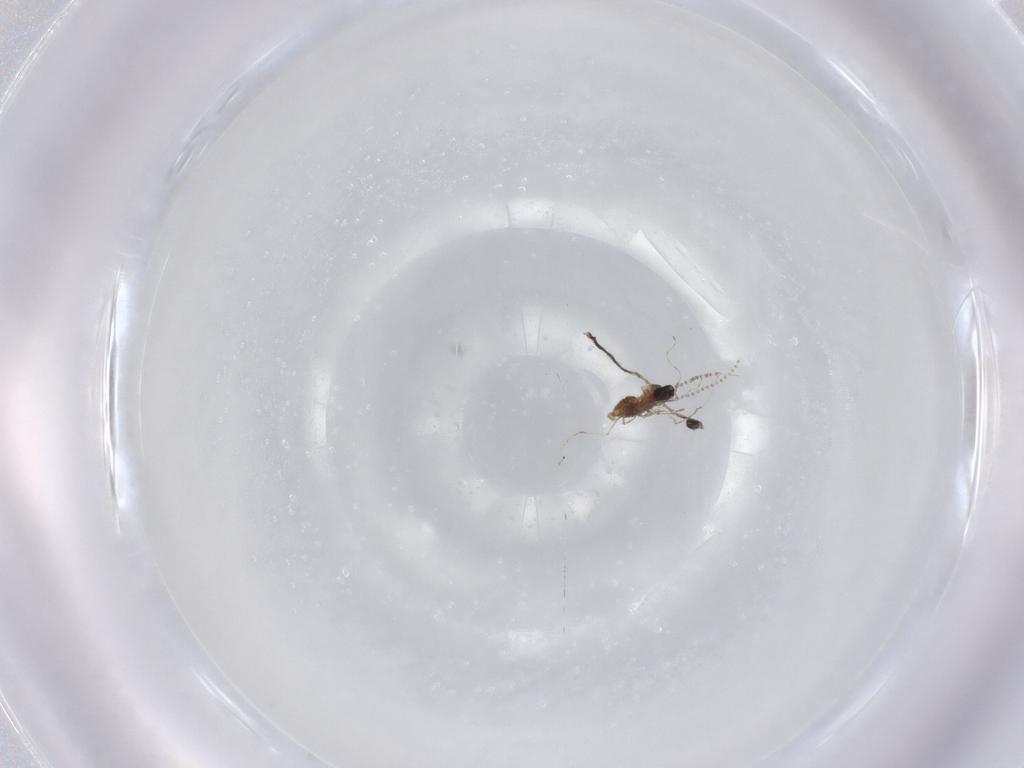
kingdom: Animalia
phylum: Arthropoda
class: Insecta
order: Diptera
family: Cecidomyiidae
